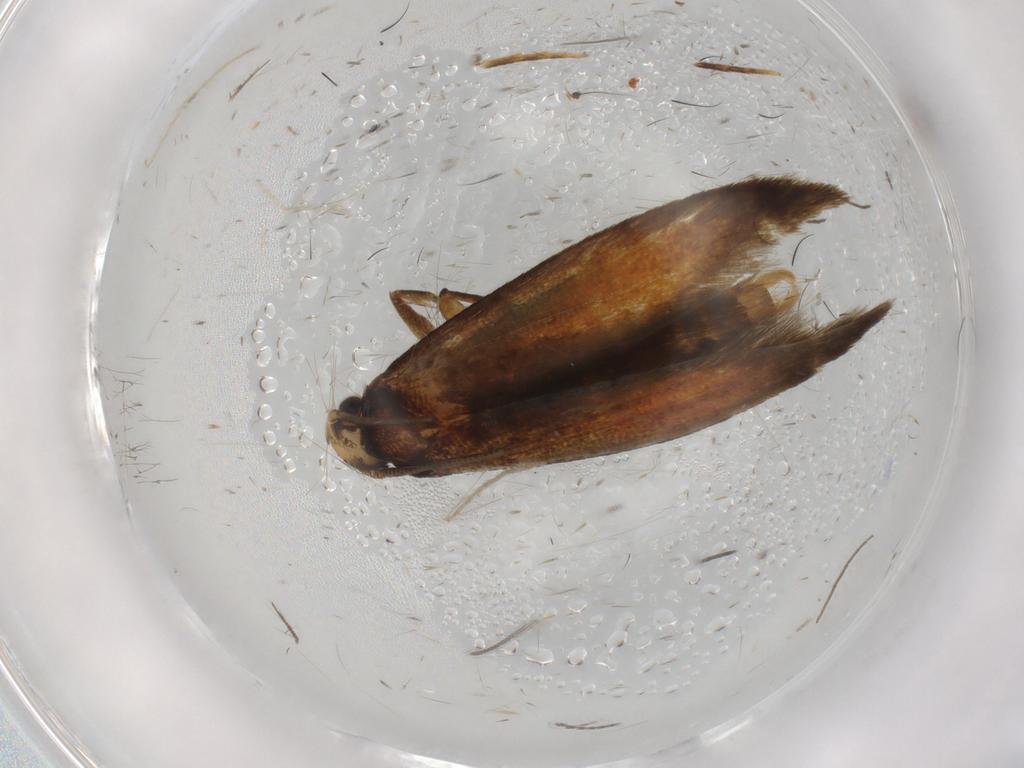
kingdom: Animalia
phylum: Arthropoda
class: Insecta
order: Lepidoptera
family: Tineidae
